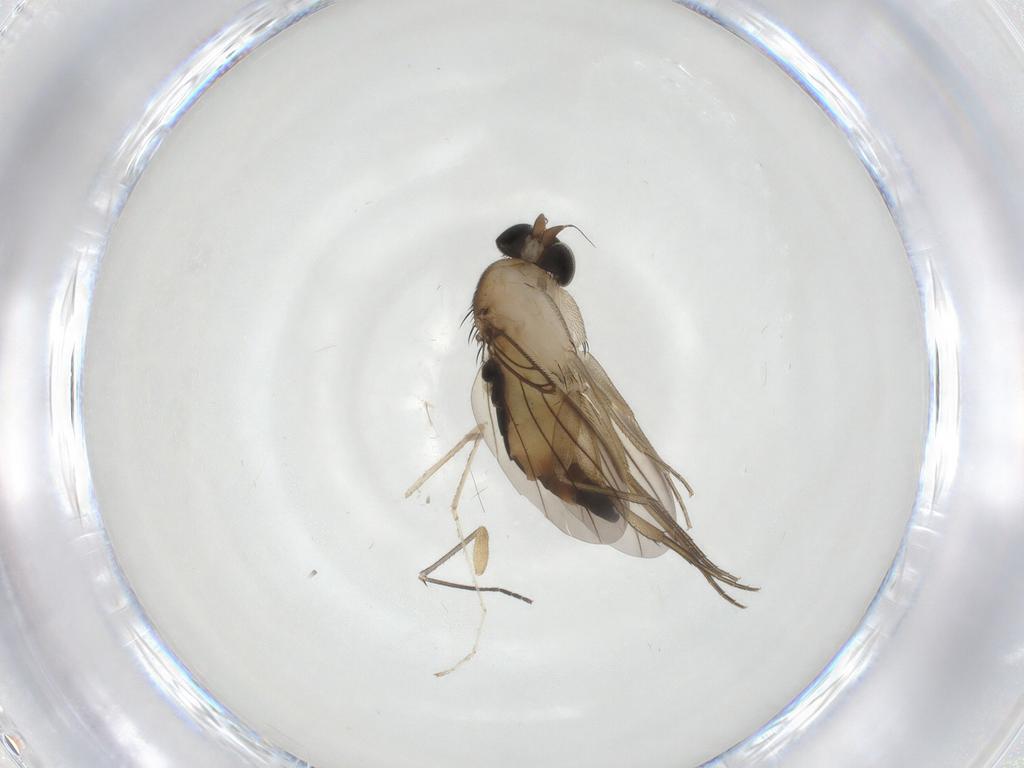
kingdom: Animalia
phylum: Arthropoda
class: Insecta
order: Diptera
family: Phoridae
